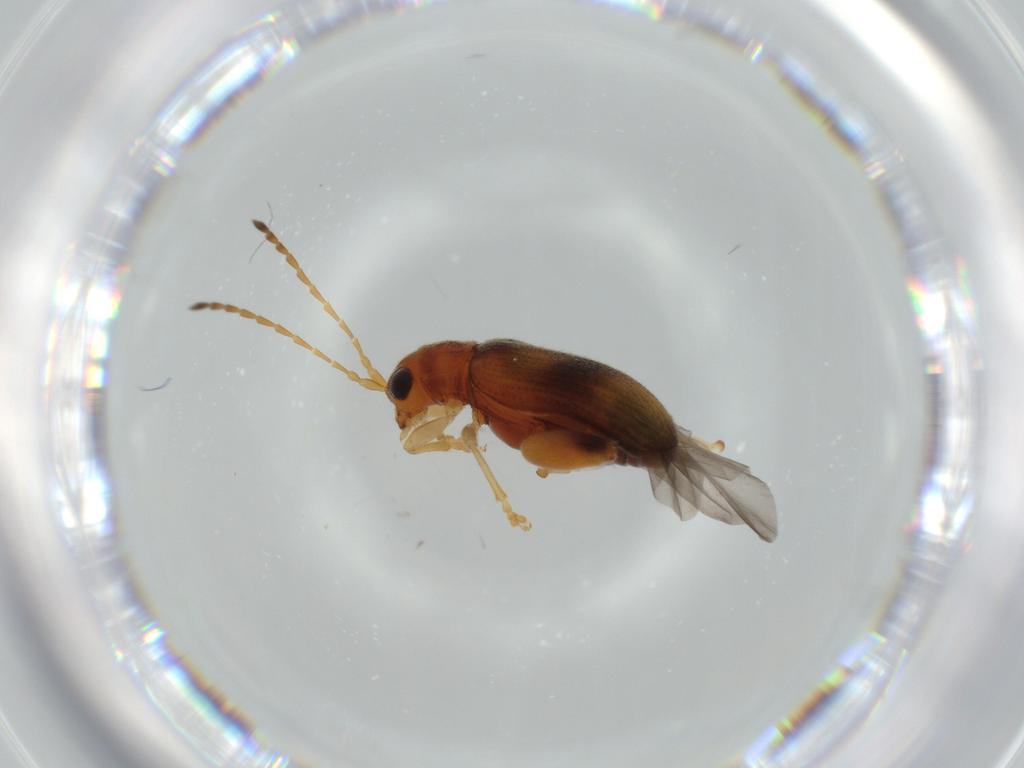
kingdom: Animalia
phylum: Arthropoda
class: Insecta
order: Coleoptera
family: Chrysomelidae
